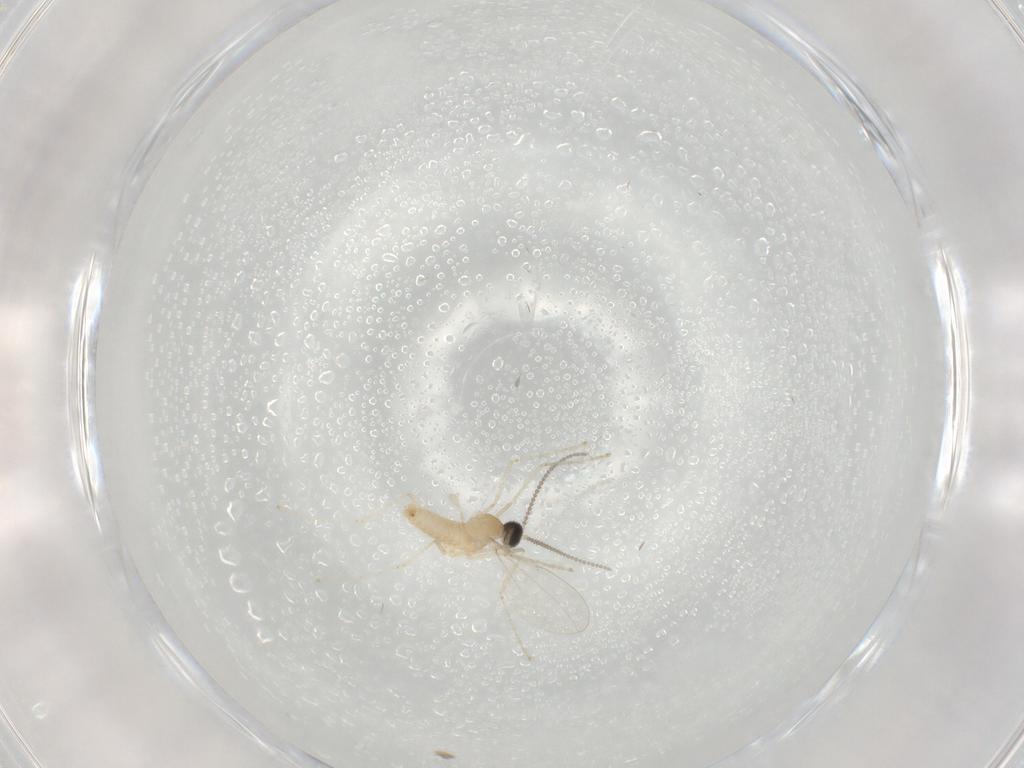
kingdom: Animalia
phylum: Arthropoda
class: Insecta
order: Diptera
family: Cecidomyiidae
